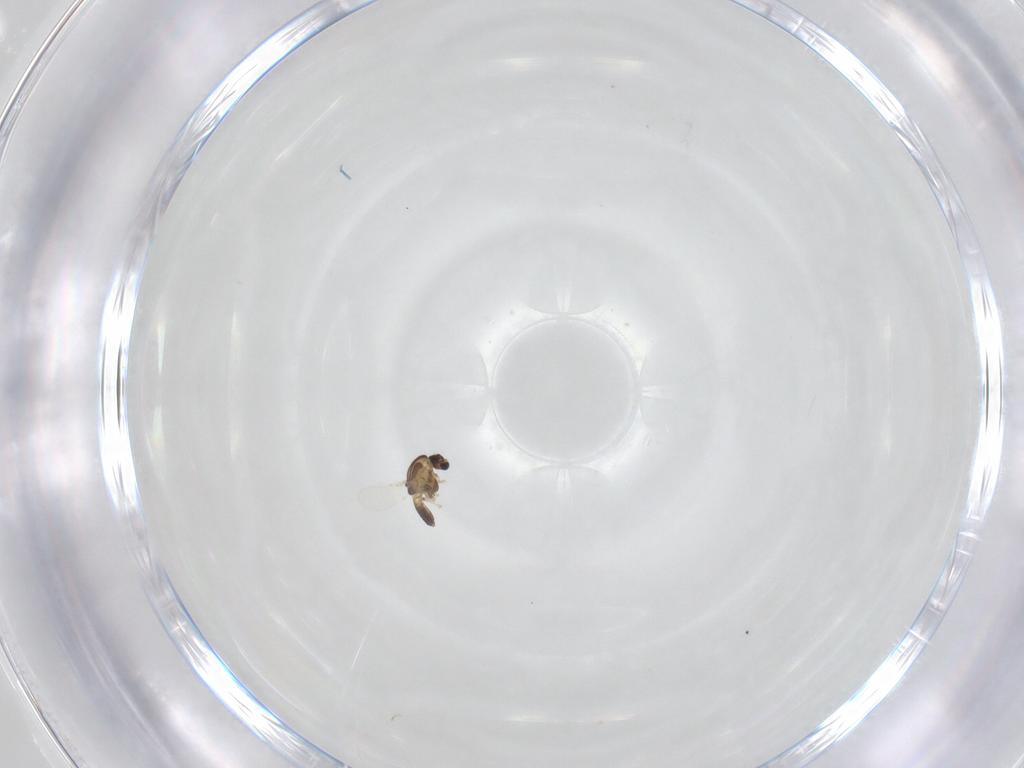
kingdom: Animalia
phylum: Arthropoda
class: Insecta
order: Diptera
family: Chironomidae
